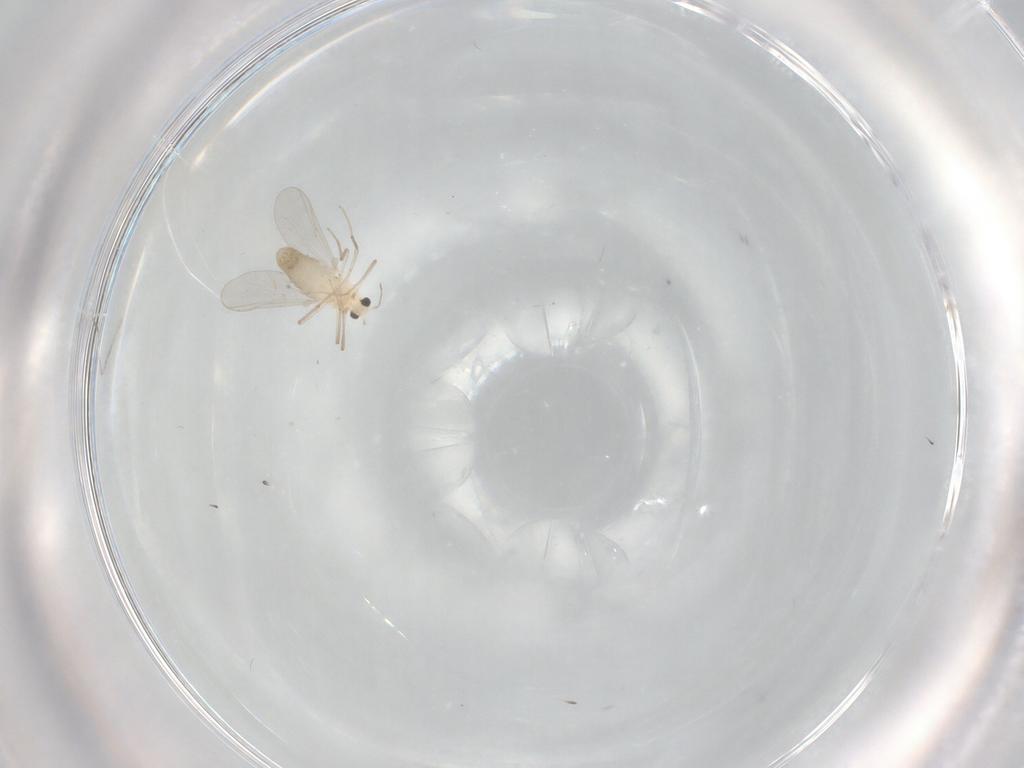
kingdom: Animalia
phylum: Arthropoda
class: Insecta
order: Diptera
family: Chironomidae
